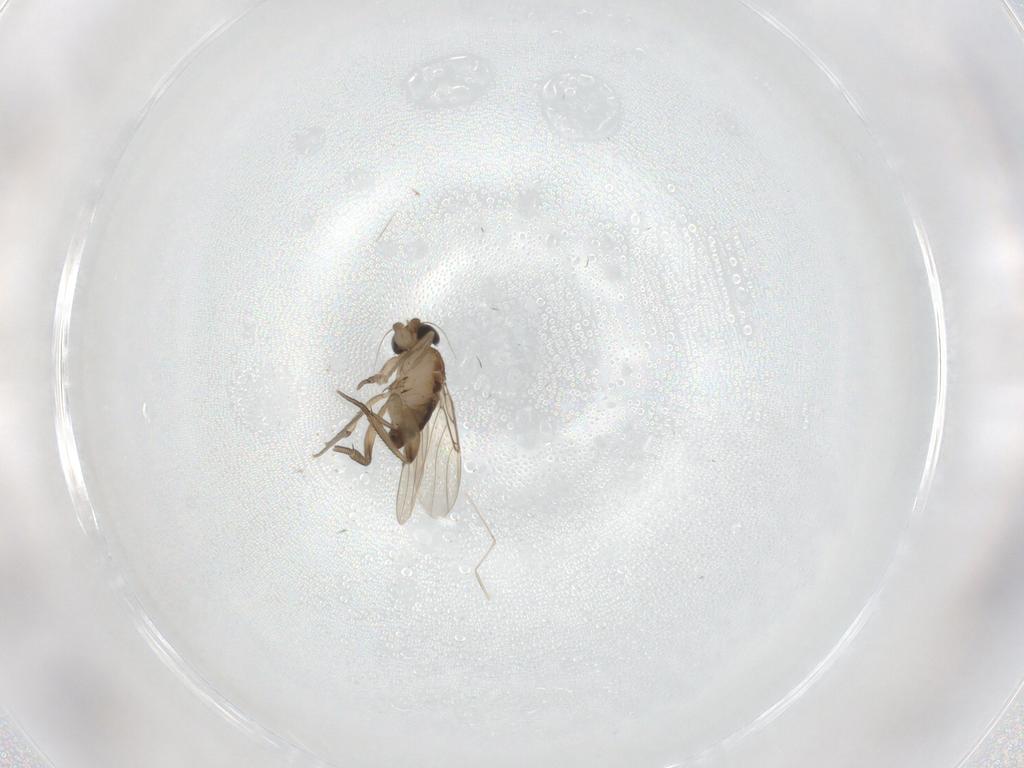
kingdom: Animalia
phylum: Arthropoda
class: Insecta
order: Diptera
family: Phoridae
